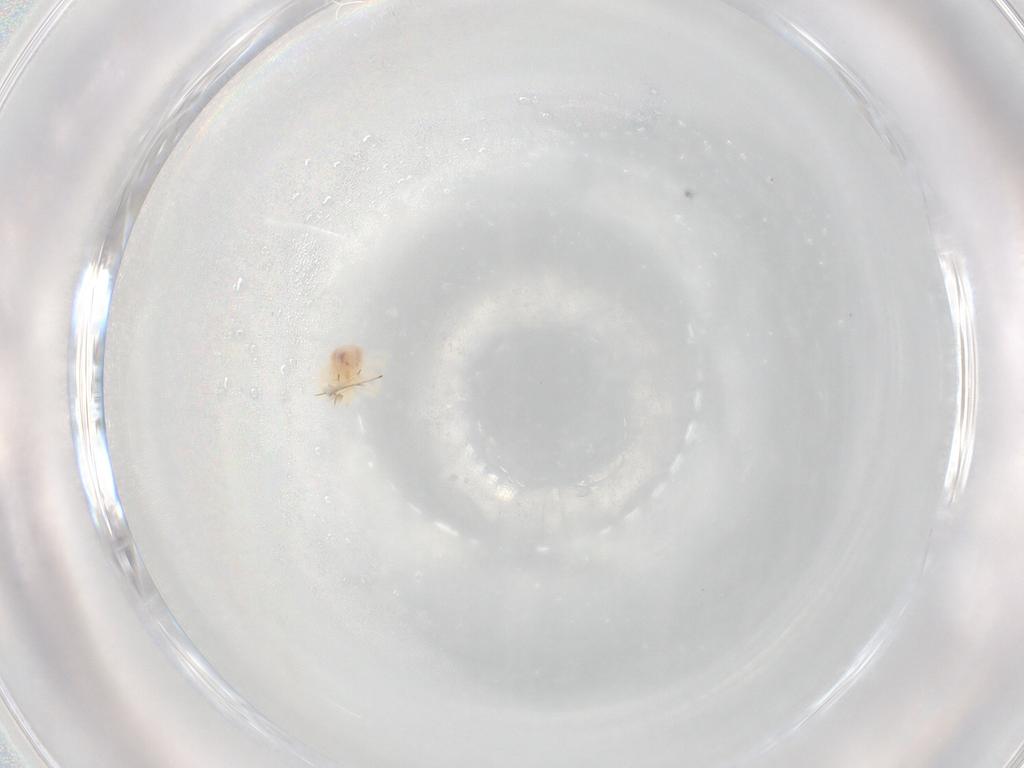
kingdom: Animalia
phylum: Arthropoda
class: Arachnida
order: Trombidiformes
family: Anystidae
